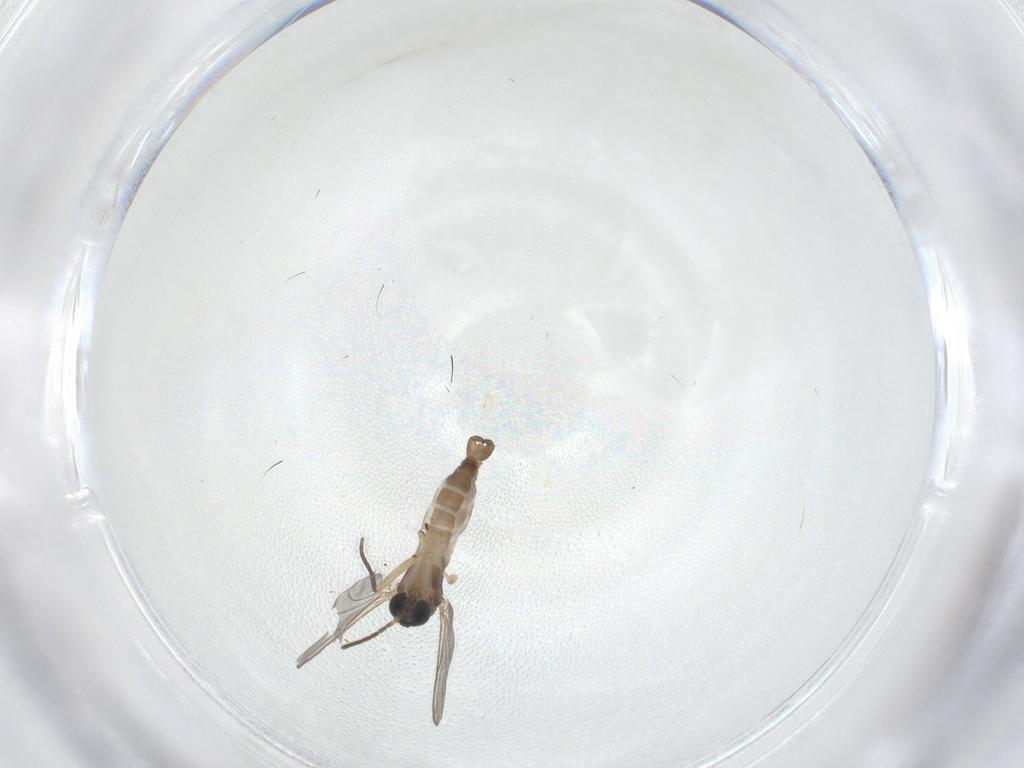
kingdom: Animalia
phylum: Arthropoda
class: Insecta
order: Diptera
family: Sciaridae
